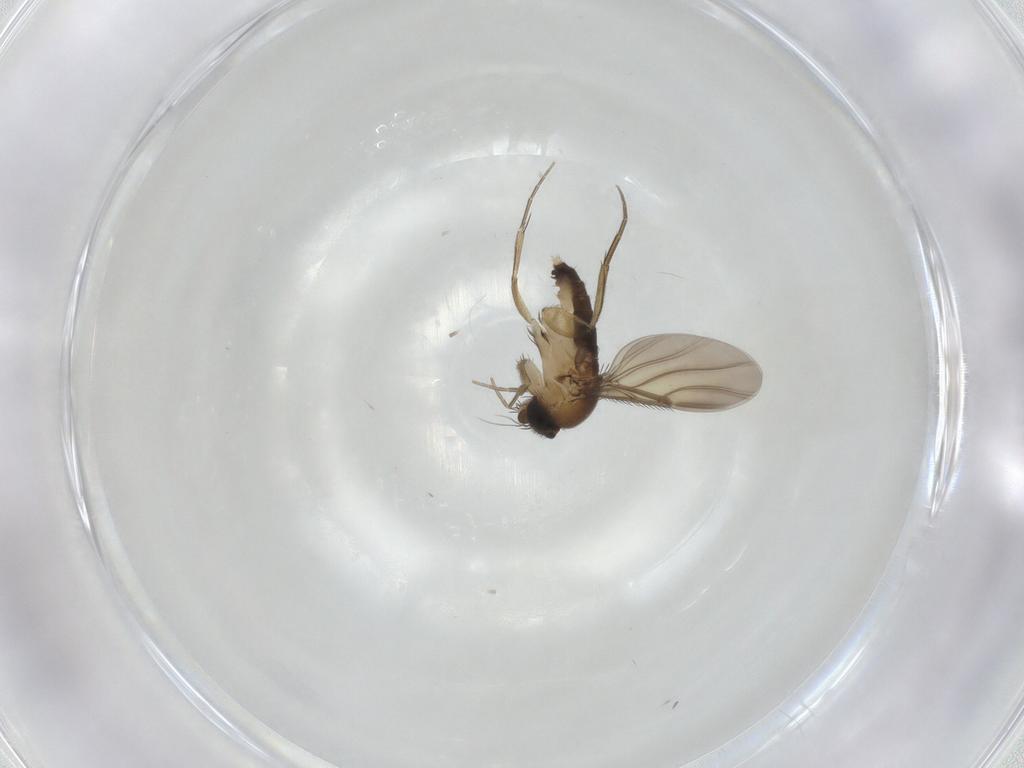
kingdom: Animalia
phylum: Arthropoda
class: Insecta
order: Diptera
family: Phoridae
